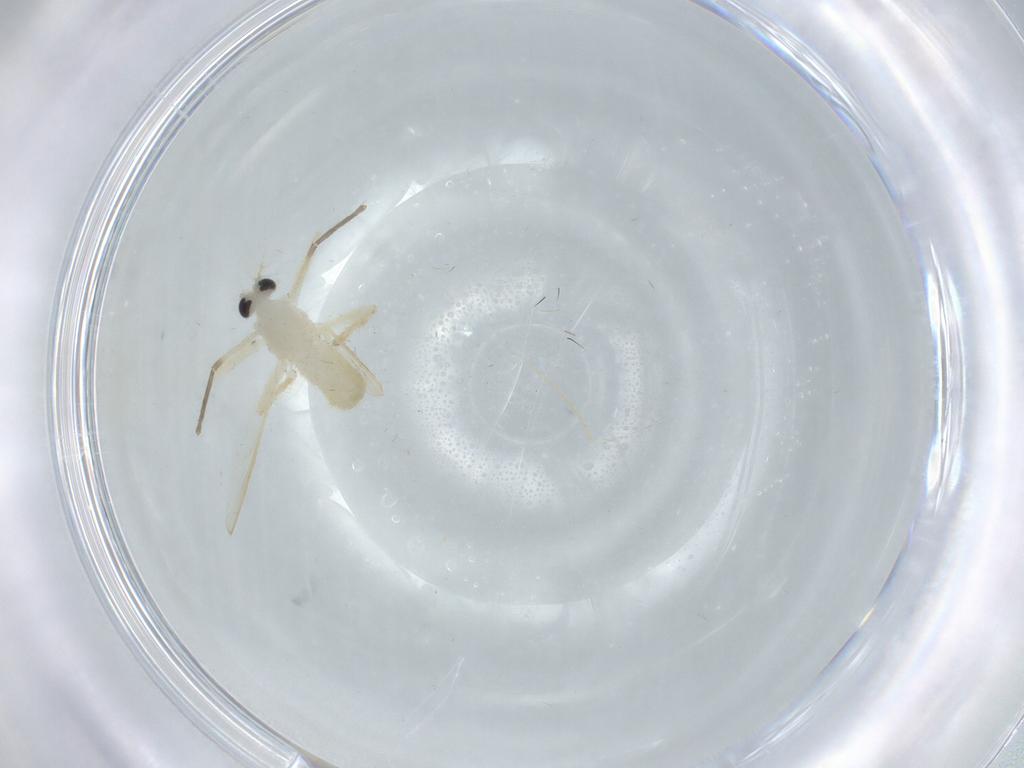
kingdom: Animalia
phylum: Arthropoda
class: Insecta
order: Diptera
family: Chironomidae
